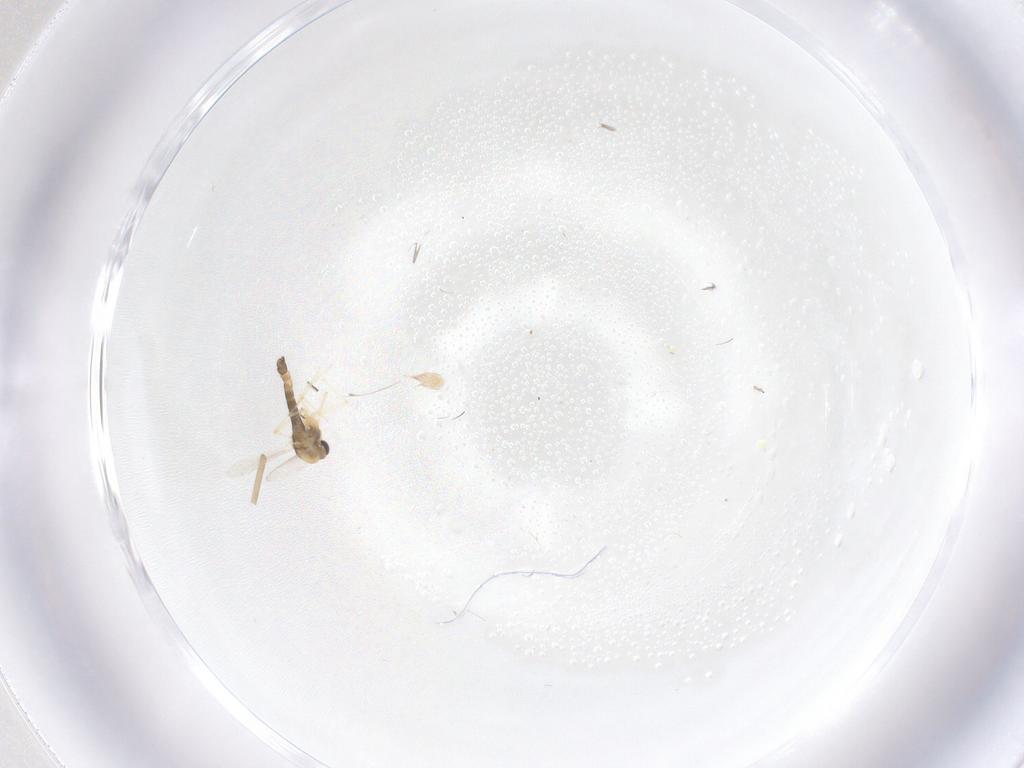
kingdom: Animalia
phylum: Arthropoda
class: Insecta
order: Diptera
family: Chironomidae
